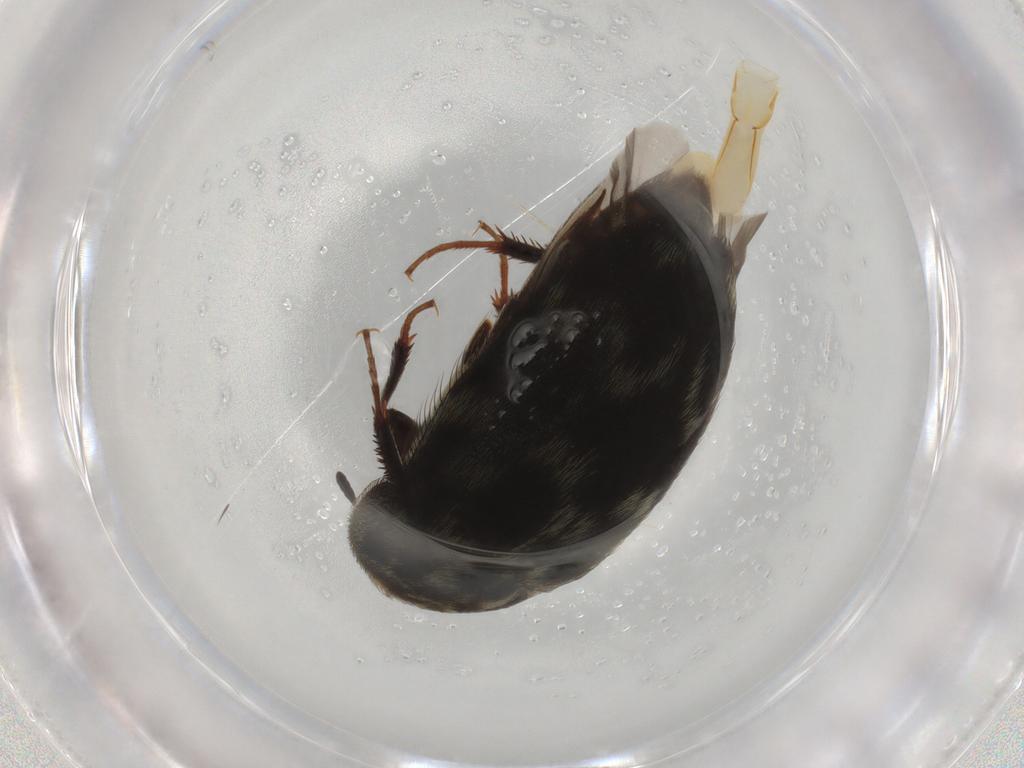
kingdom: Animalia
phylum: Arthropoda
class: Insecta
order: Coleoptera
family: Dermestidae
